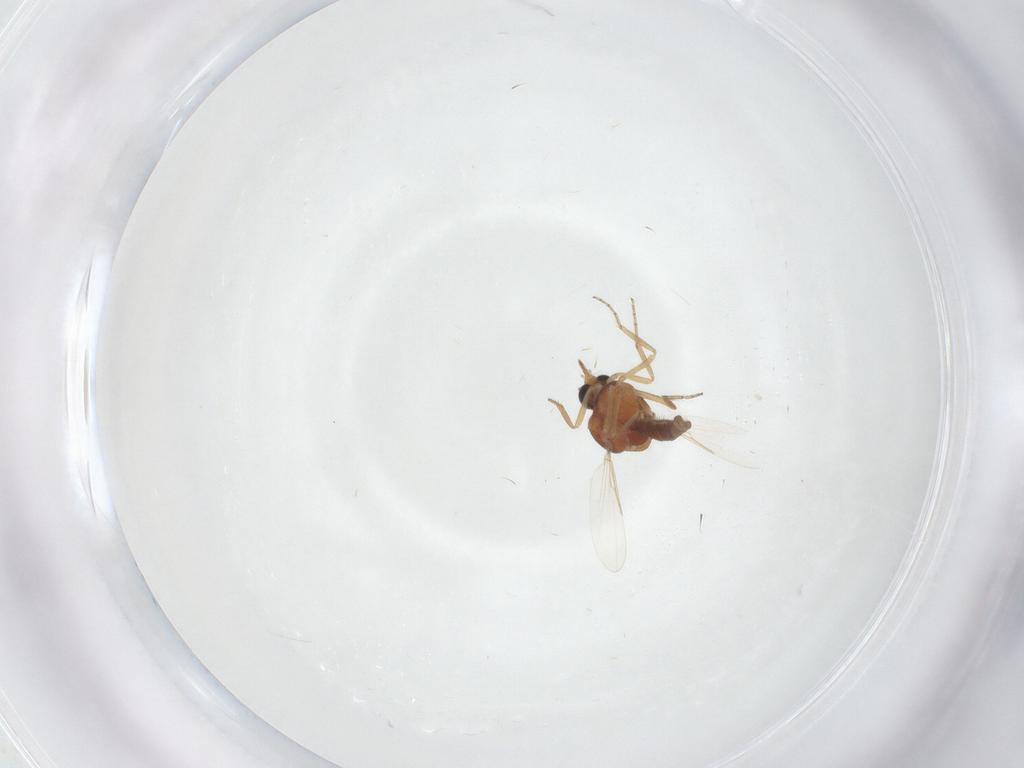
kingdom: Animalia
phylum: Arthropoda
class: Insecta
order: Diptera
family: Ceratopogonidae
